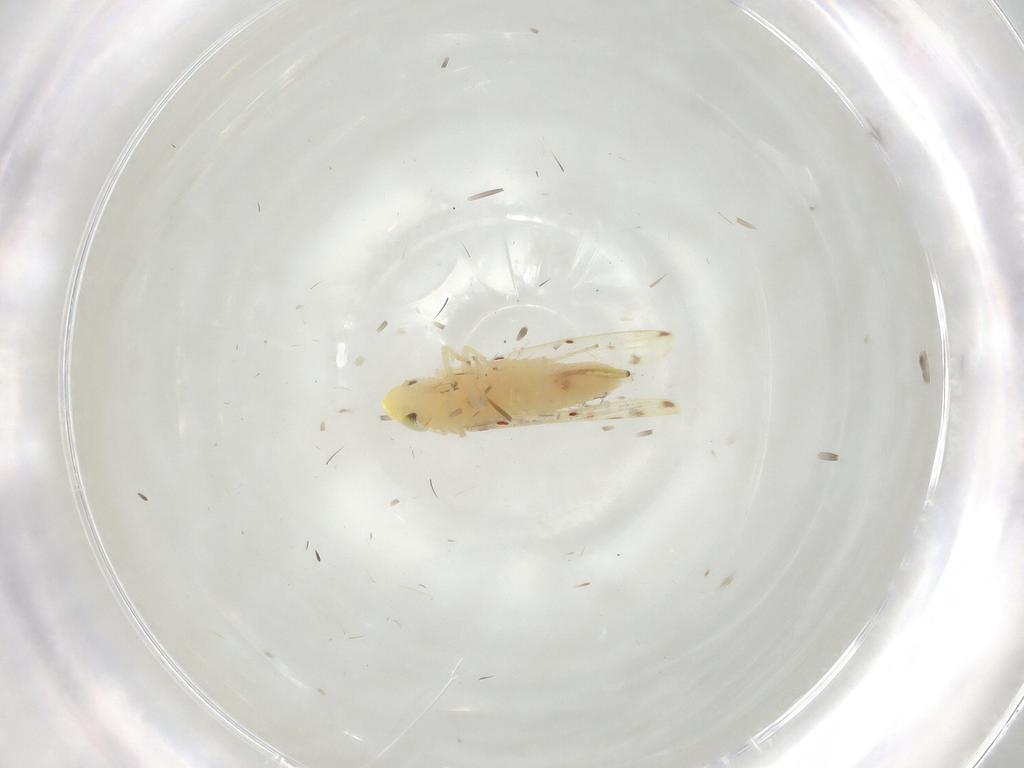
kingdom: Animalia
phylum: Arthropoda
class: Insecta
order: Hemiptera
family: Cicadellidae
